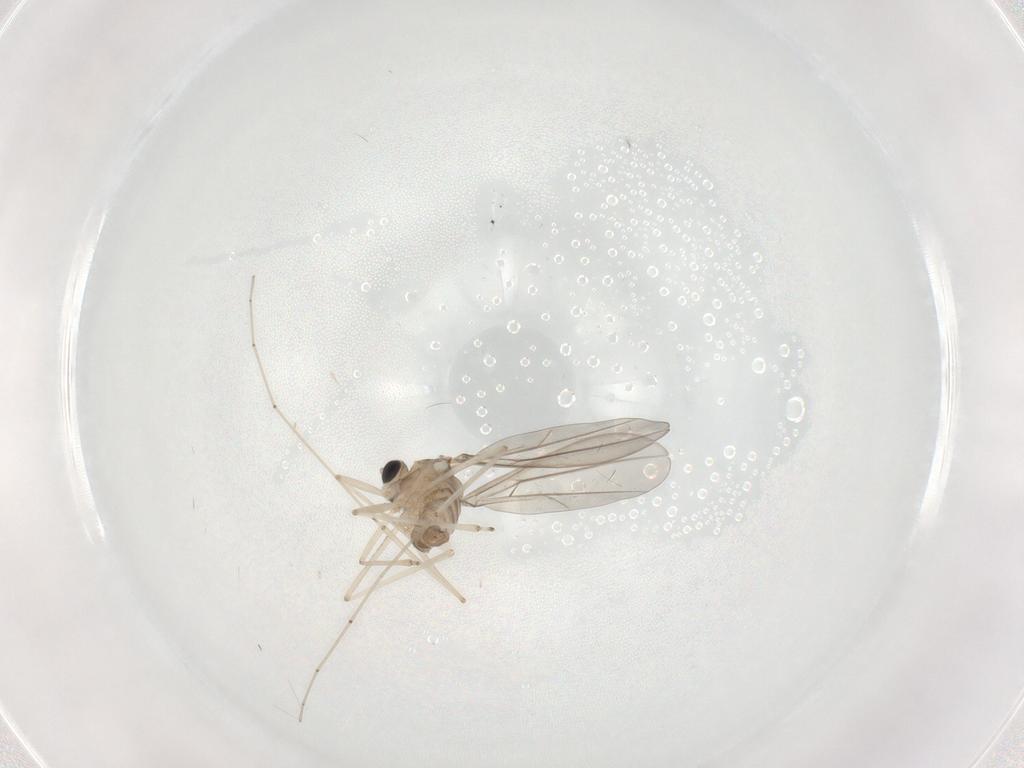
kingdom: Animalia
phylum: Arthropoda
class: Insecta
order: Diptera
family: Cecidomyiidae
